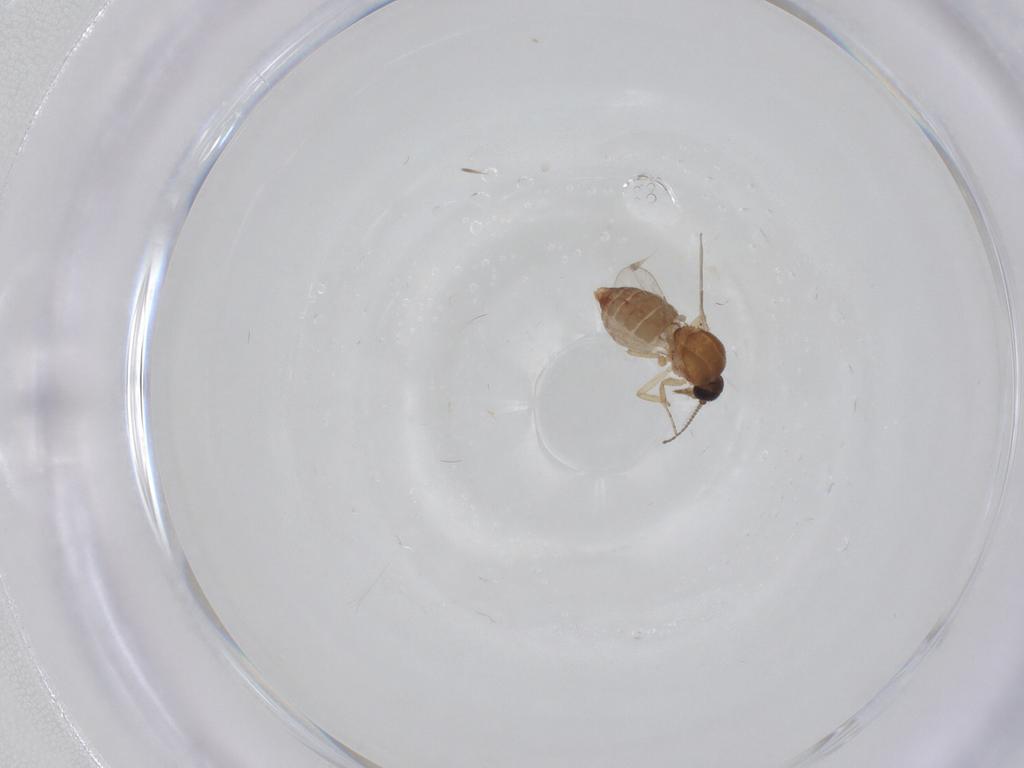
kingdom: Animalia
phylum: Arthropoda
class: Insecta
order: Diptera
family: Ceratopogonidae
